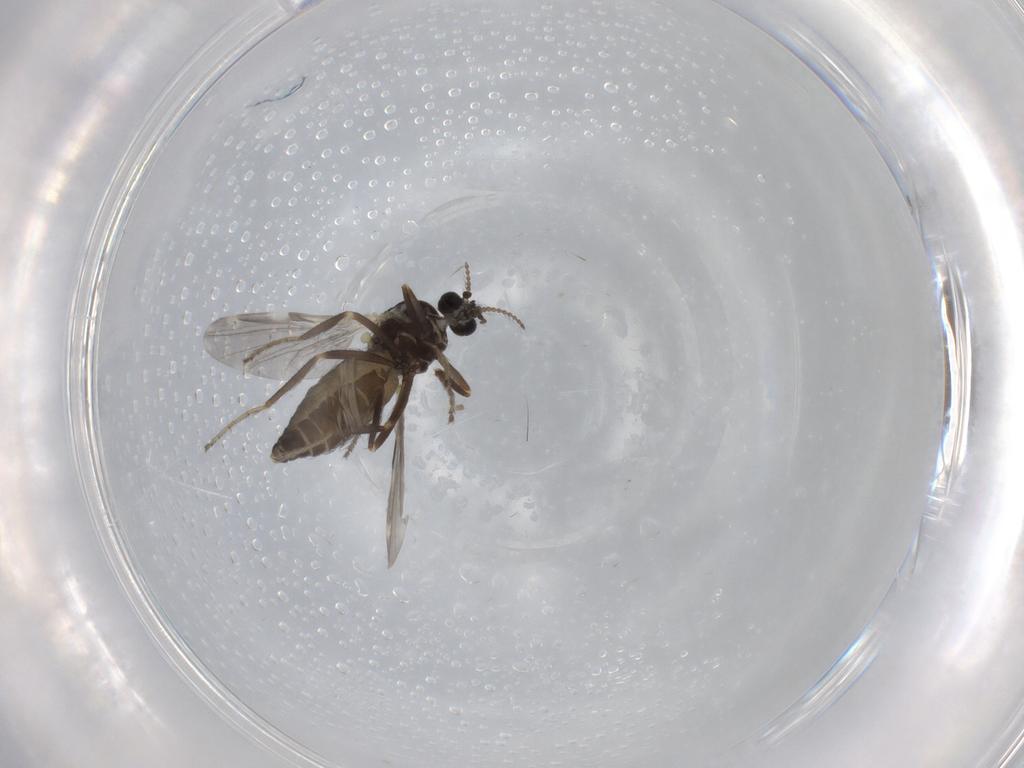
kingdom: Animalia
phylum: Arthropoda
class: Insecta
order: Diptera
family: Ceratopogonidae
